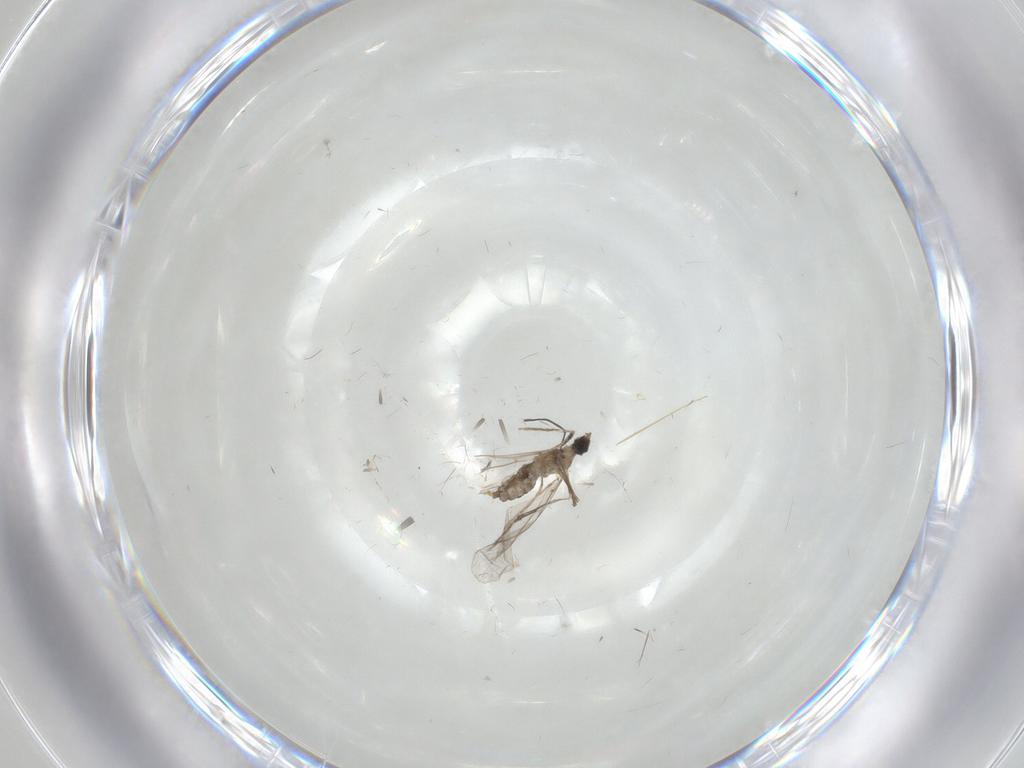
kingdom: Animalia
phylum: Arthropoda
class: Insecta
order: Diptera
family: Cecidomyiidae
